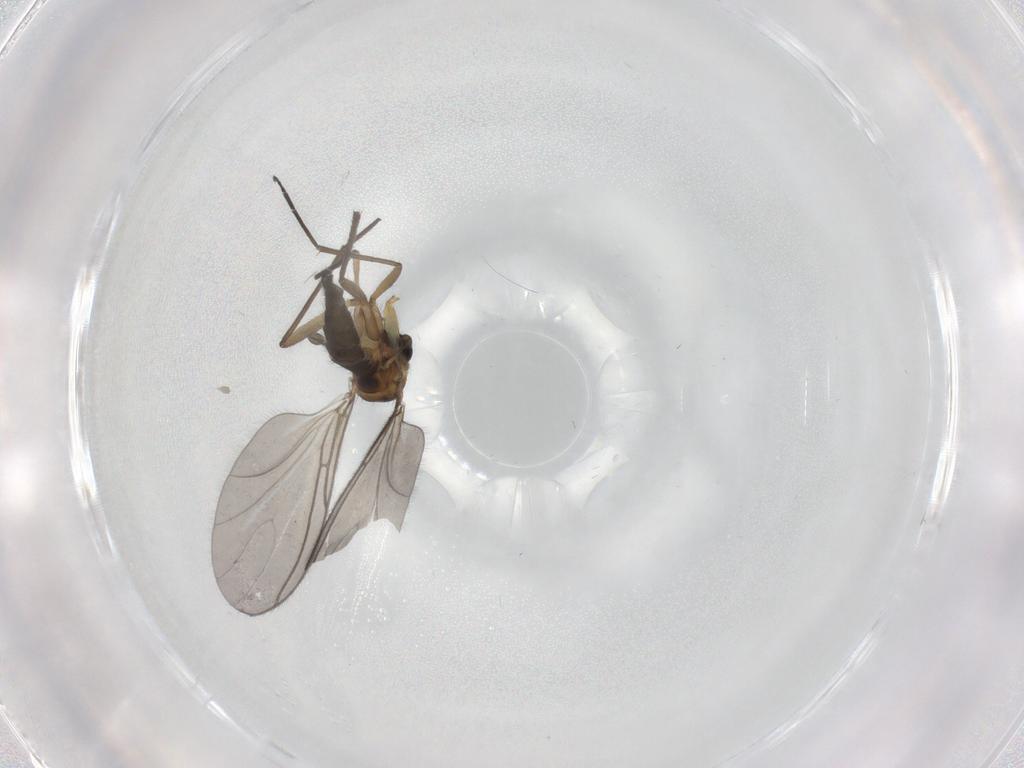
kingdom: Animalia
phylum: Arthropoda
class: Insecta
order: Diptera
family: Sciaridae
